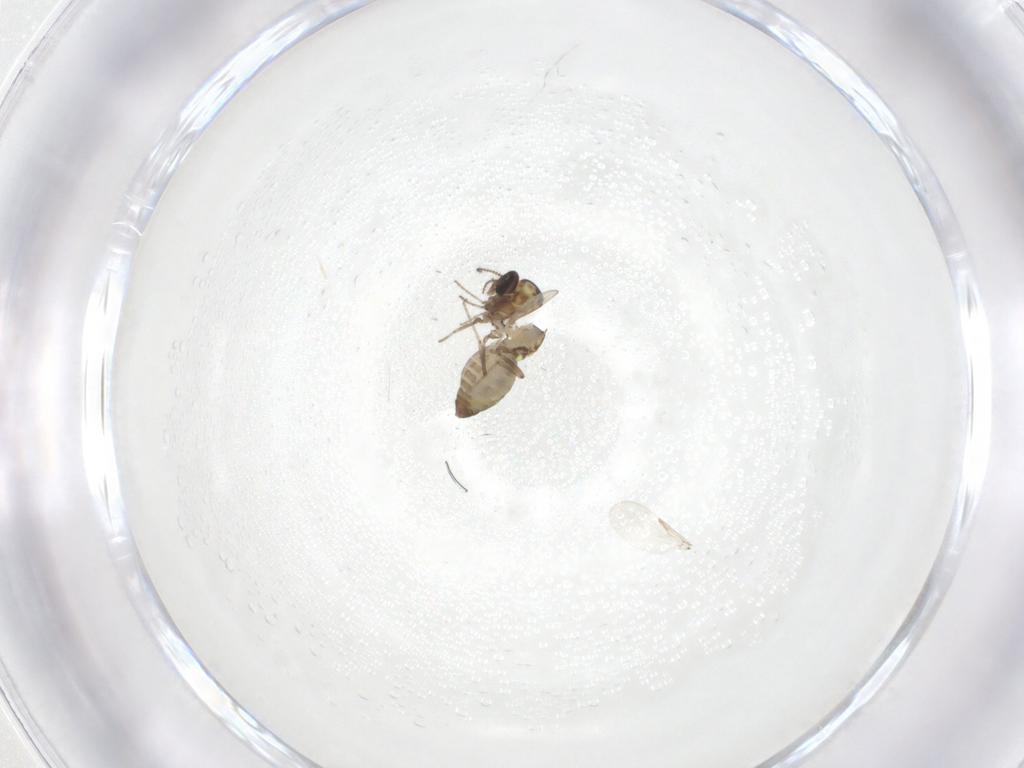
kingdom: Animalia
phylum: Arthropoda
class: Insecta
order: Diptera
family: Ceratopogonidae
